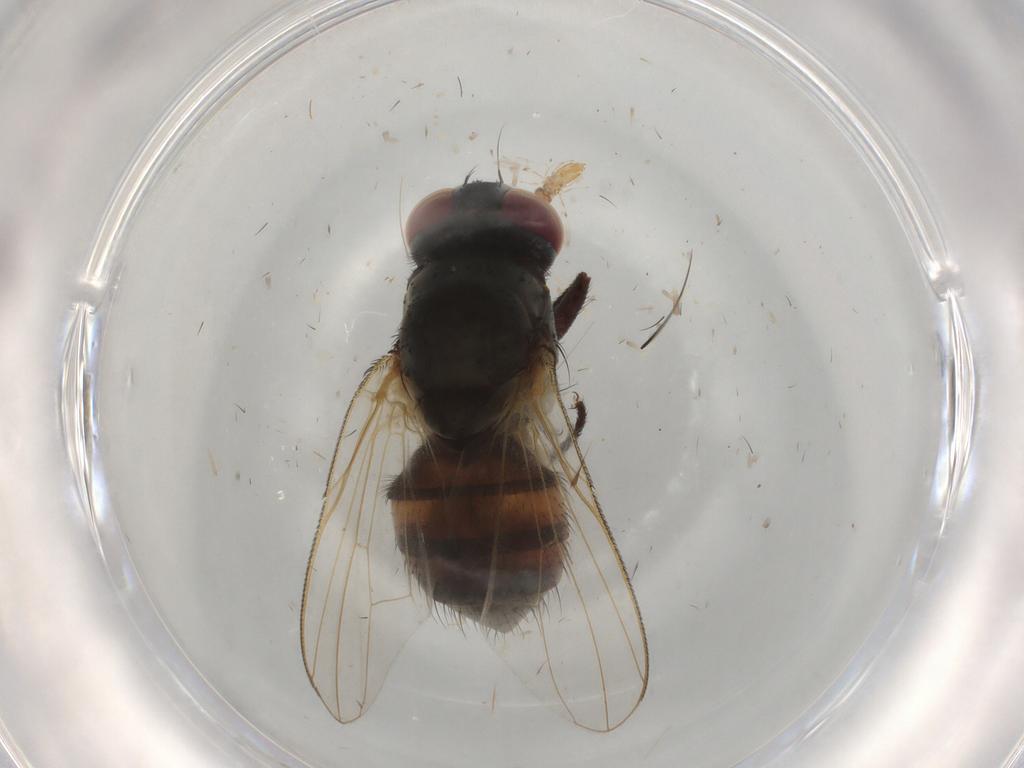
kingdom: Animalia
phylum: Arthropoda
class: Insecta
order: Diptera
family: Muscidae
